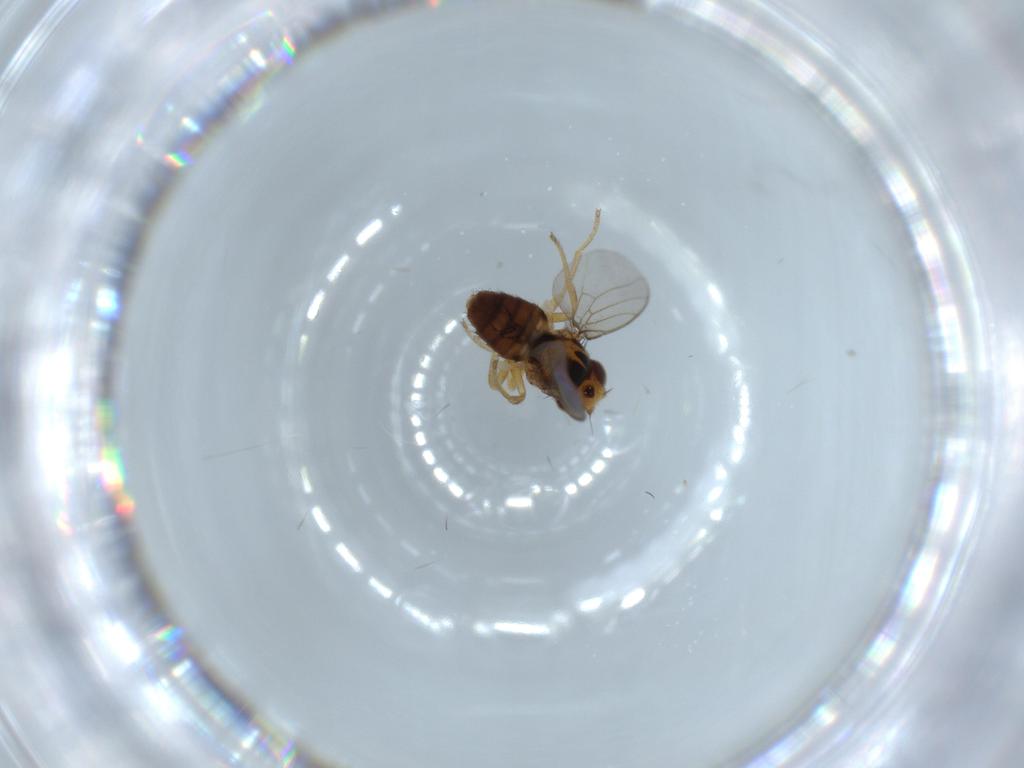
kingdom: Animalia
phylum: Arthropoda
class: Insecta
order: Diptera
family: Chloropidae
